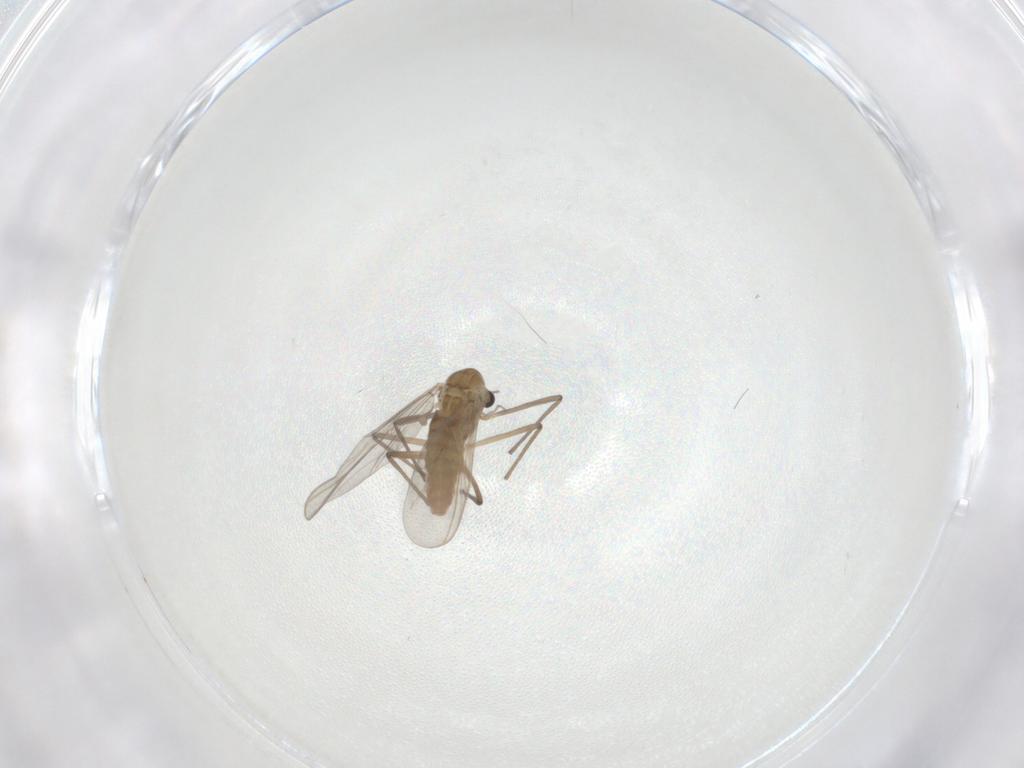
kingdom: Animalia
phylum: Arthropoda
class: Insecta
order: Diptera
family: Chironomidae
